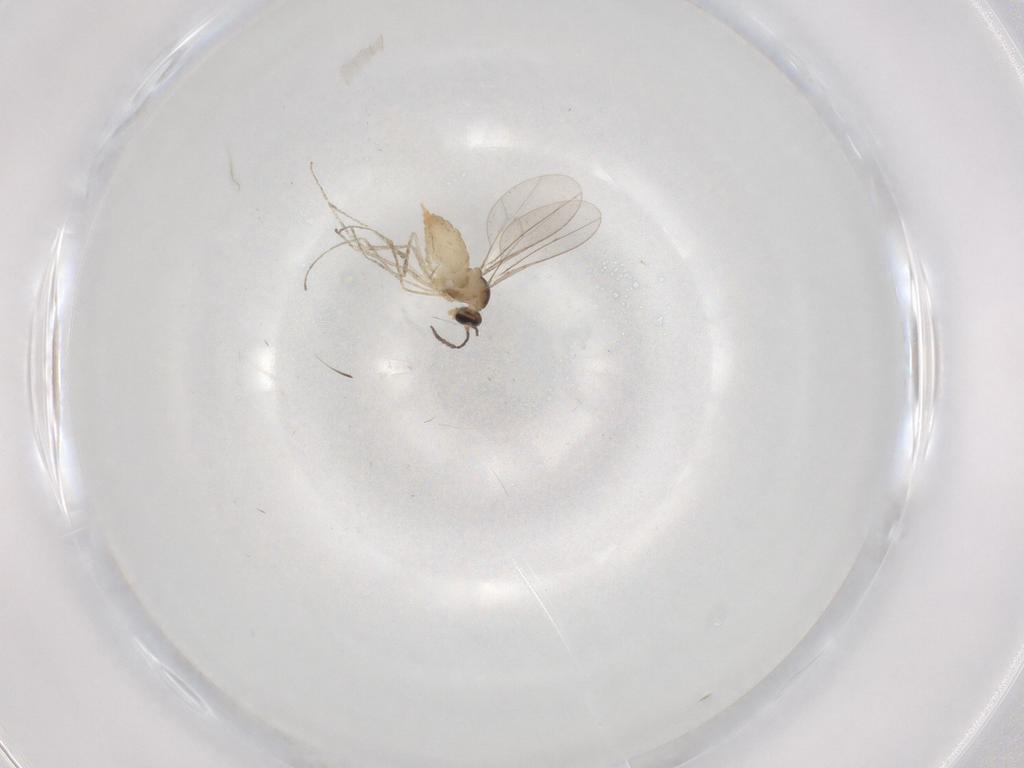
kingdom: Animalia
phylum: Arthropoda
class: Insecta
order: Diptera
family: Cecidomyiidae
